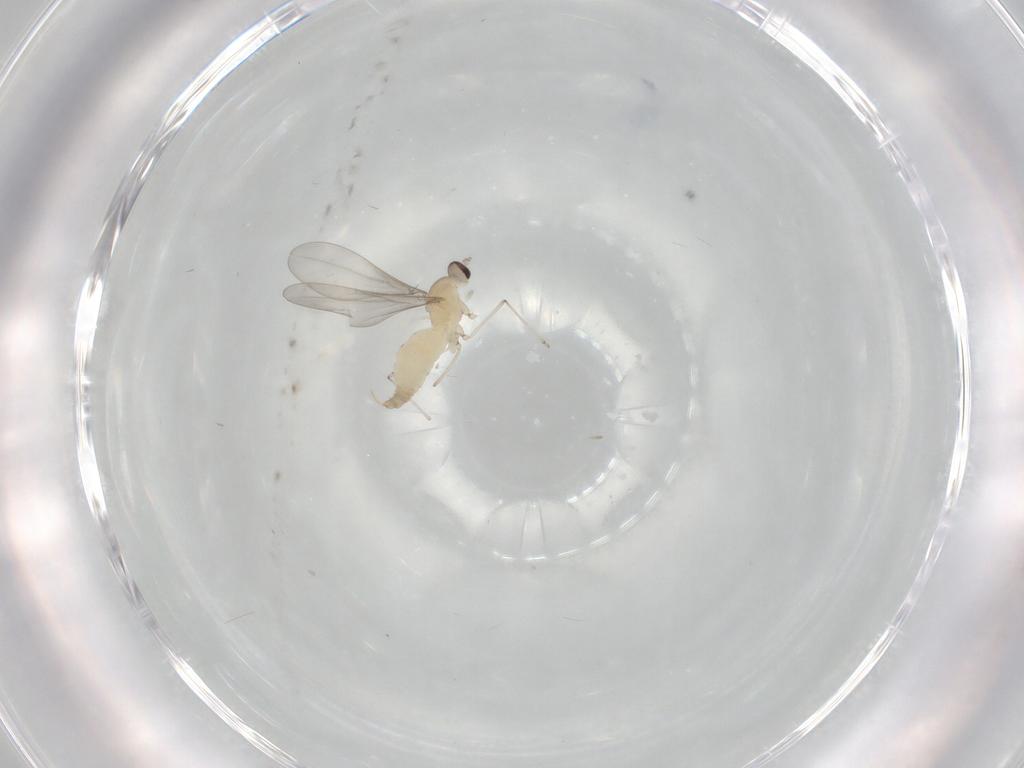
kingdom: Animalia
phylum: Arthropoda
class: Insecta
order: Diptera
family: Cecidomyiidae
